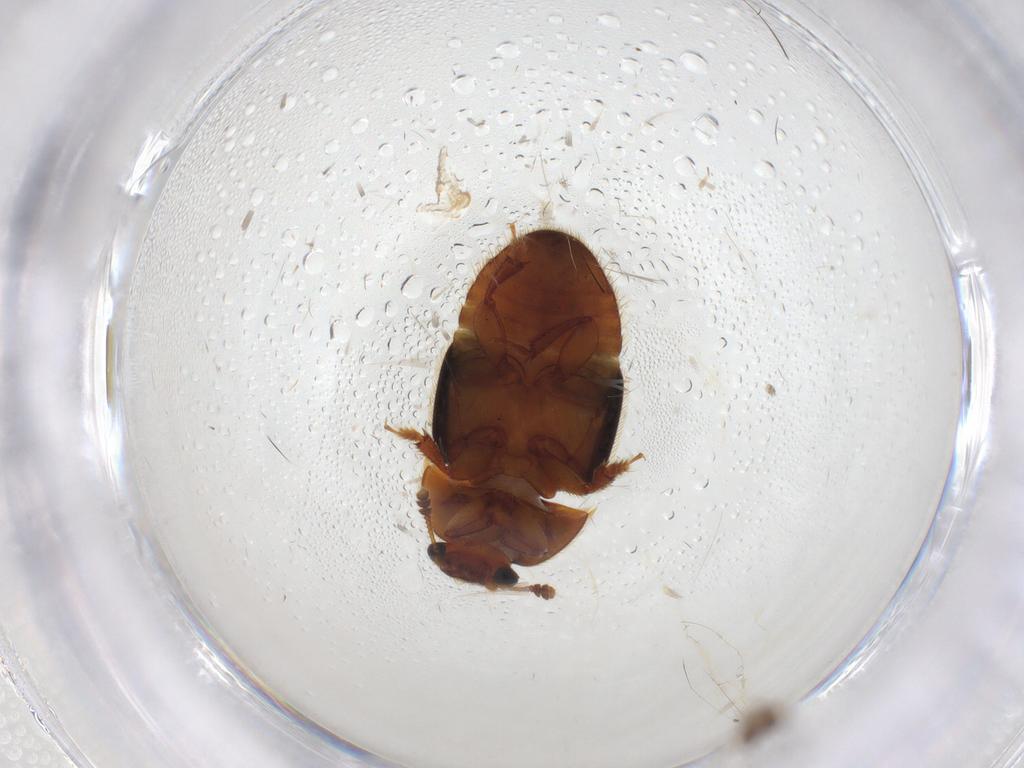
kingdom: Animalia
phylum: Arthropoda
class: Insecta
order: Coleoptera
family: Nitidulidae
